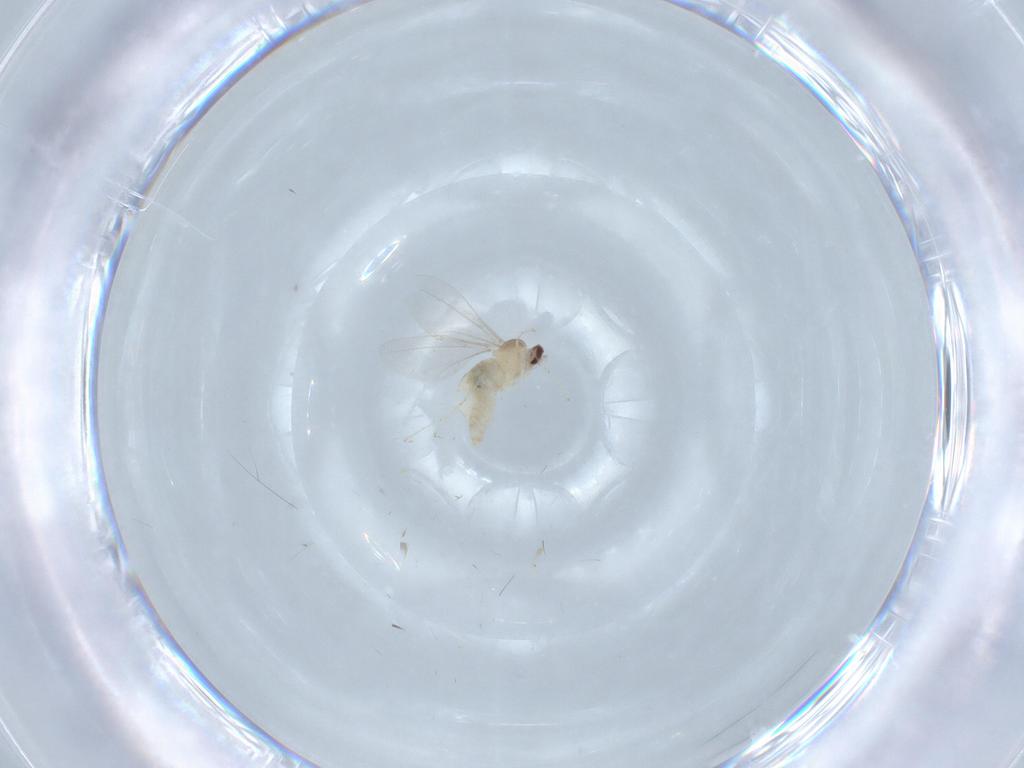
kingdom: Animalia
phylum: Arthropoda
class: Insecta
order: Diptera
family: Cecidomyiidae
